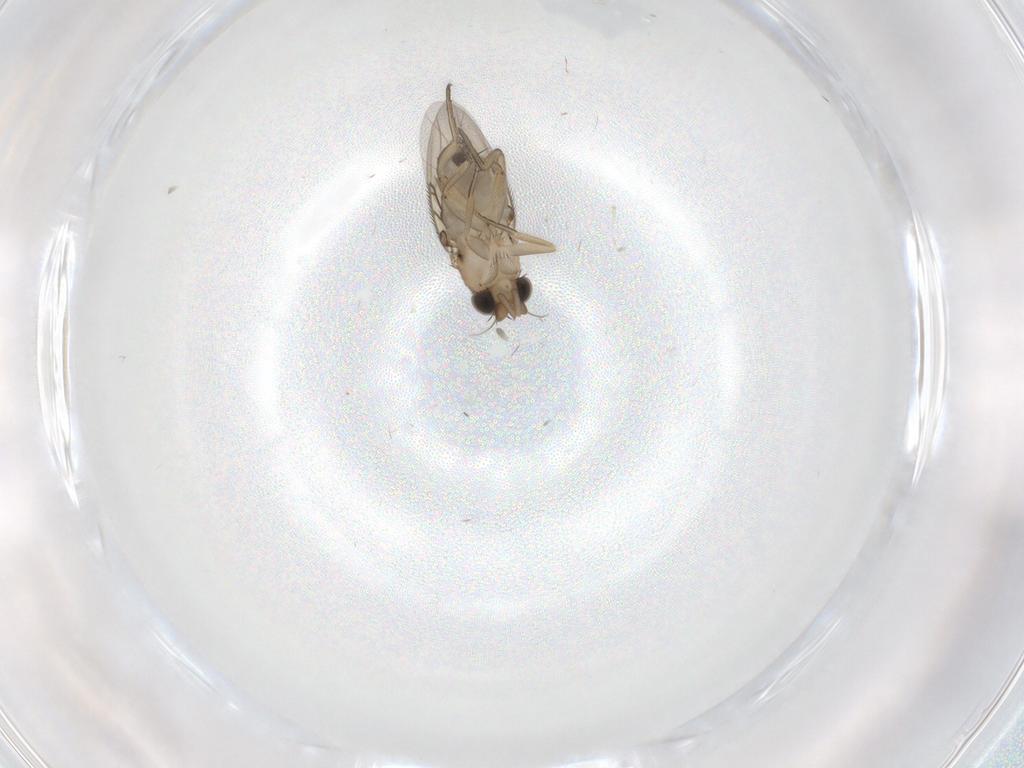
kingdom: Animalia
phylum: Arthropoda
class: Insecta
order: Diptera
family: Phoridae
